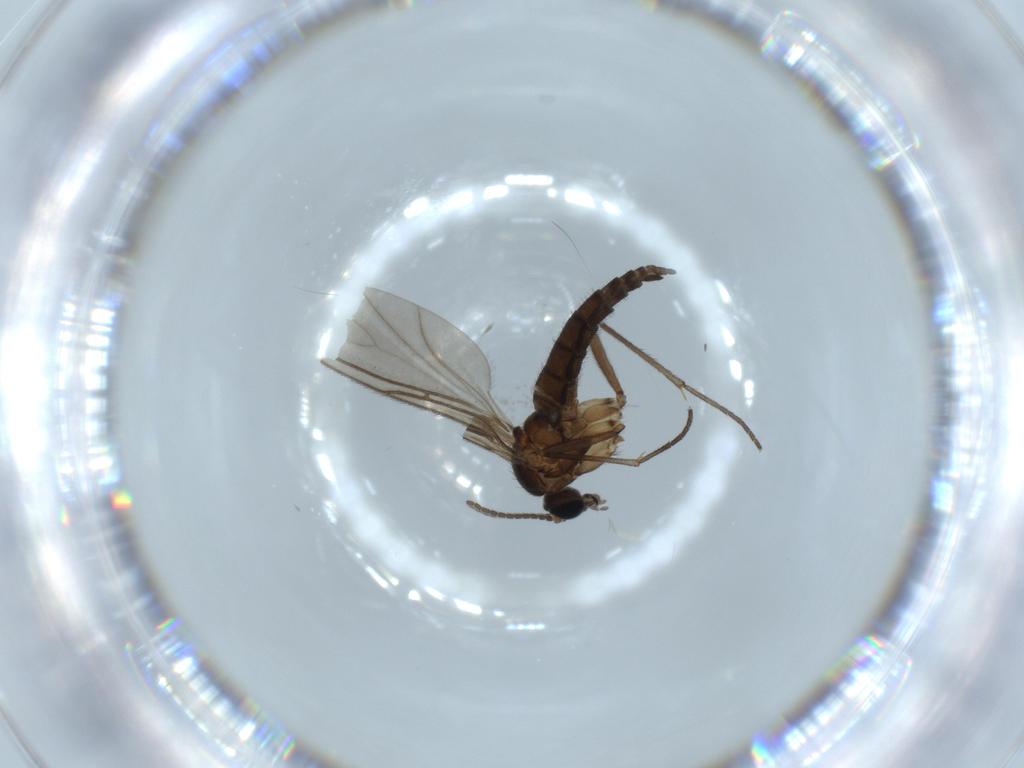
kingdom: Animalia
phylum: Arthropoda
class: Insecta
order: Diptera
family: Sciaridae
